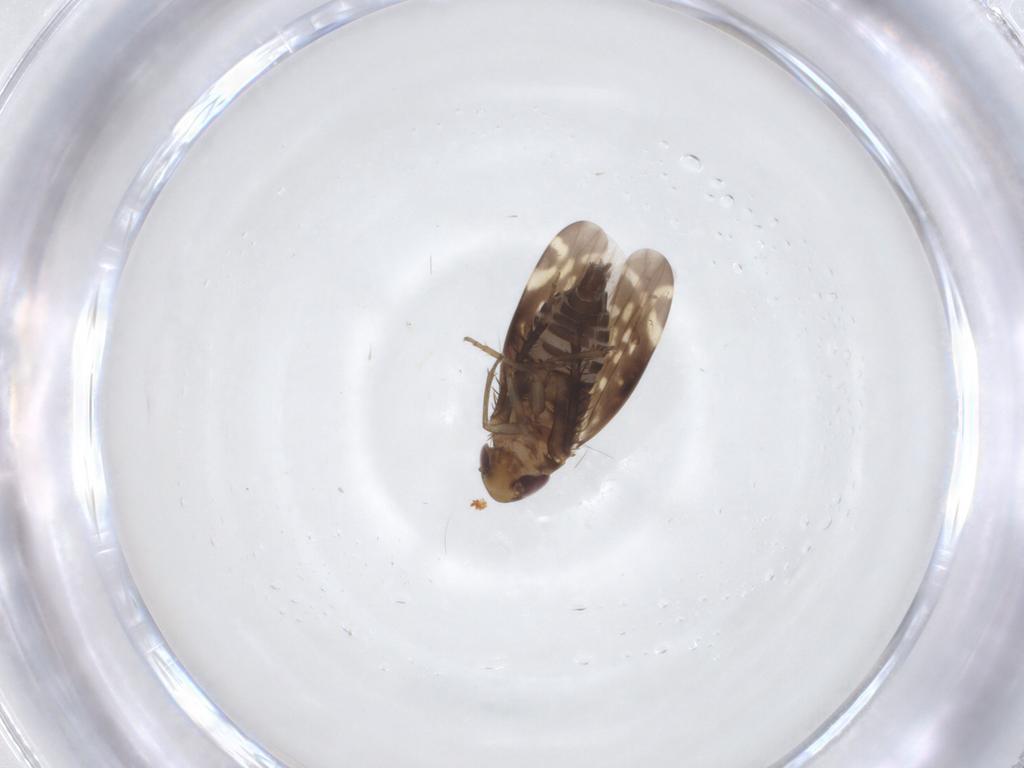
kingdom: Animalia
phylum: Arthropoda
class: Insecta
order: Hemiptera
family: Cicadellidae
